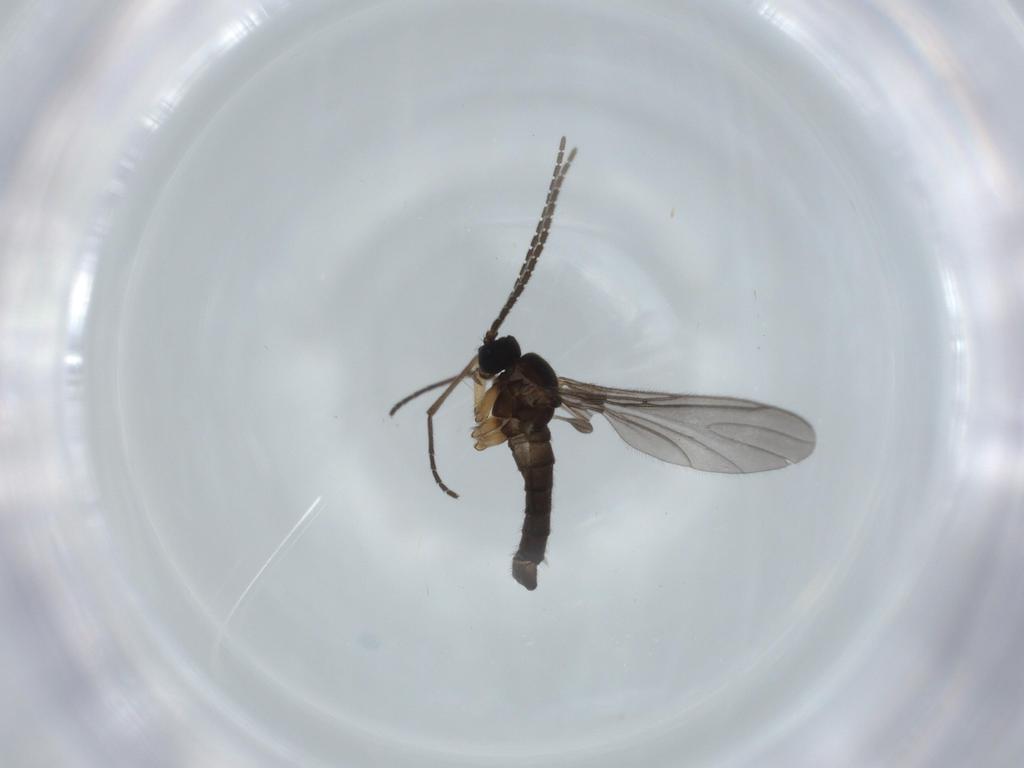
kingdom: Animalia
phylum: Arthropoda
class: Insecta
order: Diptera
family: Sciaridae
